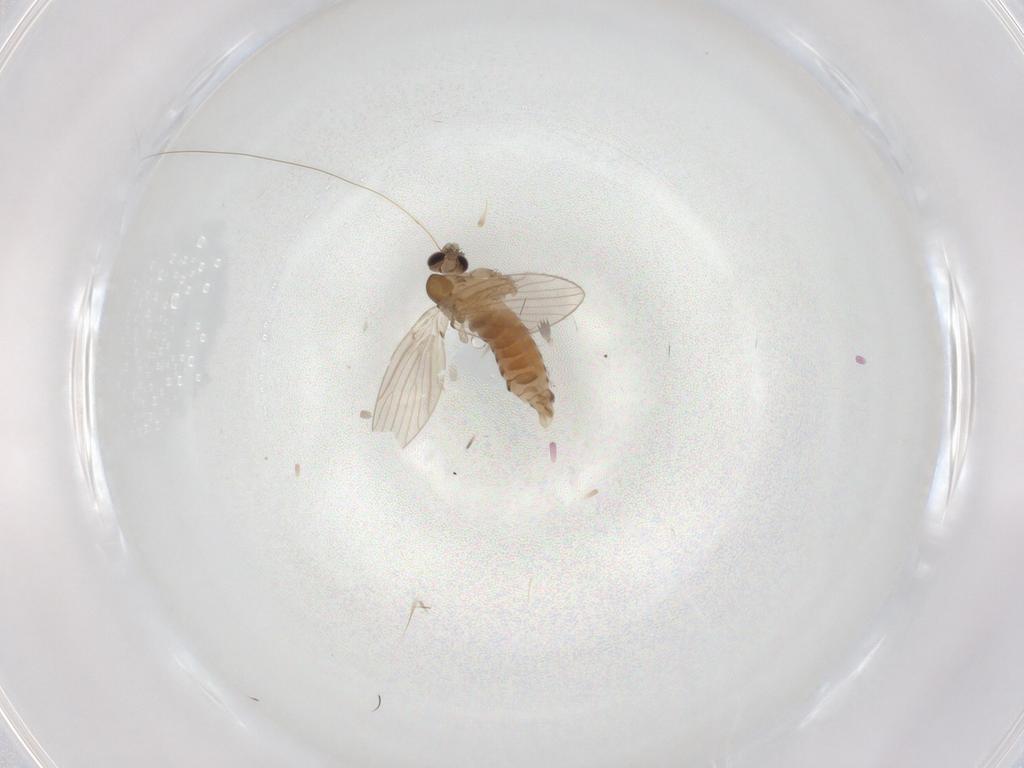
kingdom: Animalia
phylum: Arthropoda
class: Insecta
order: Diptera
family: Psychodidae
